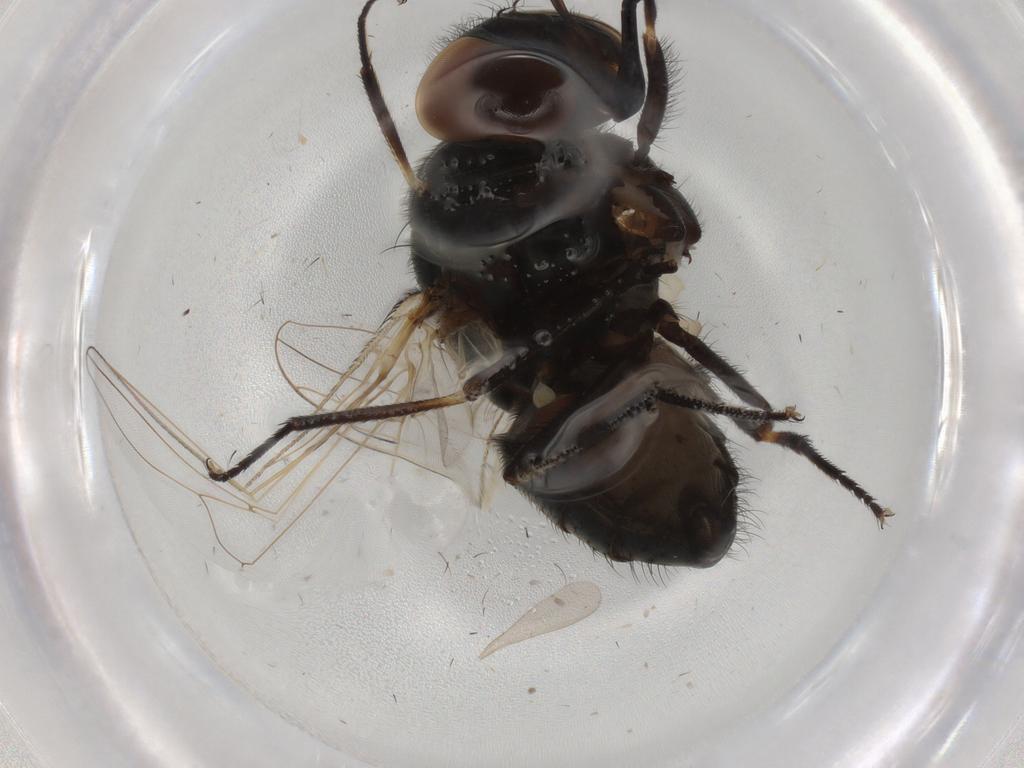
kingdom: Animalia
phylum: Arthropoda
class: Insecta
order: Diptera
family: Muscidae
